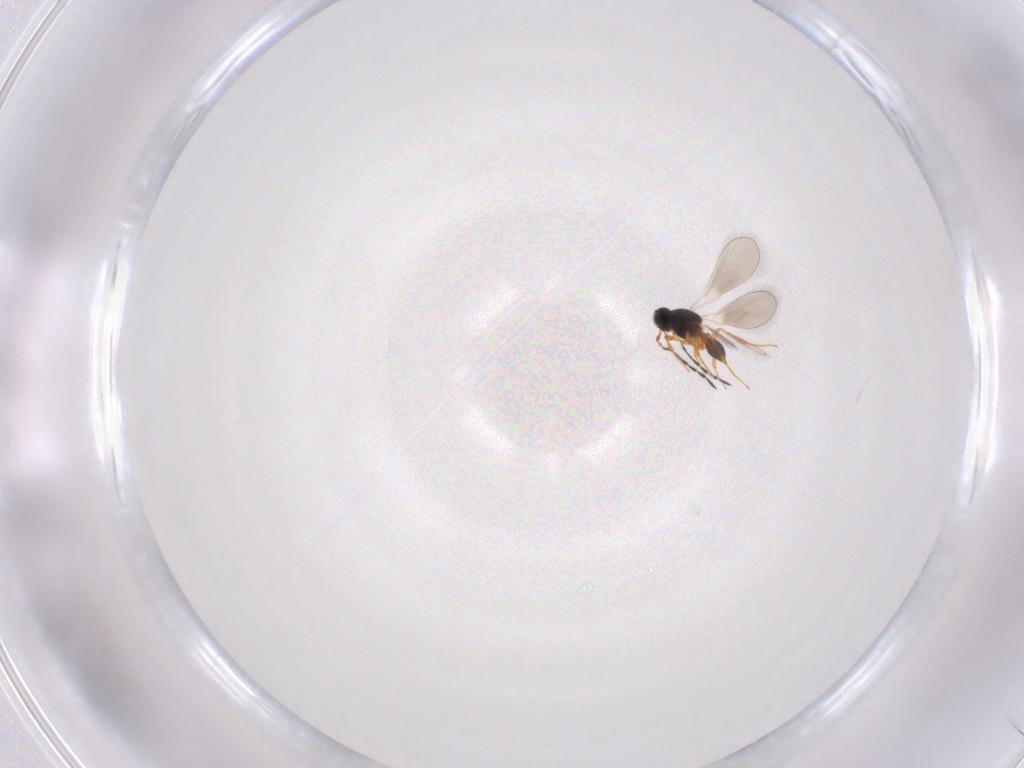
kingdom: Animalia
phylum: Arthropoda
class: Insecta
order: Hymenoptera
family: Platygastridae
